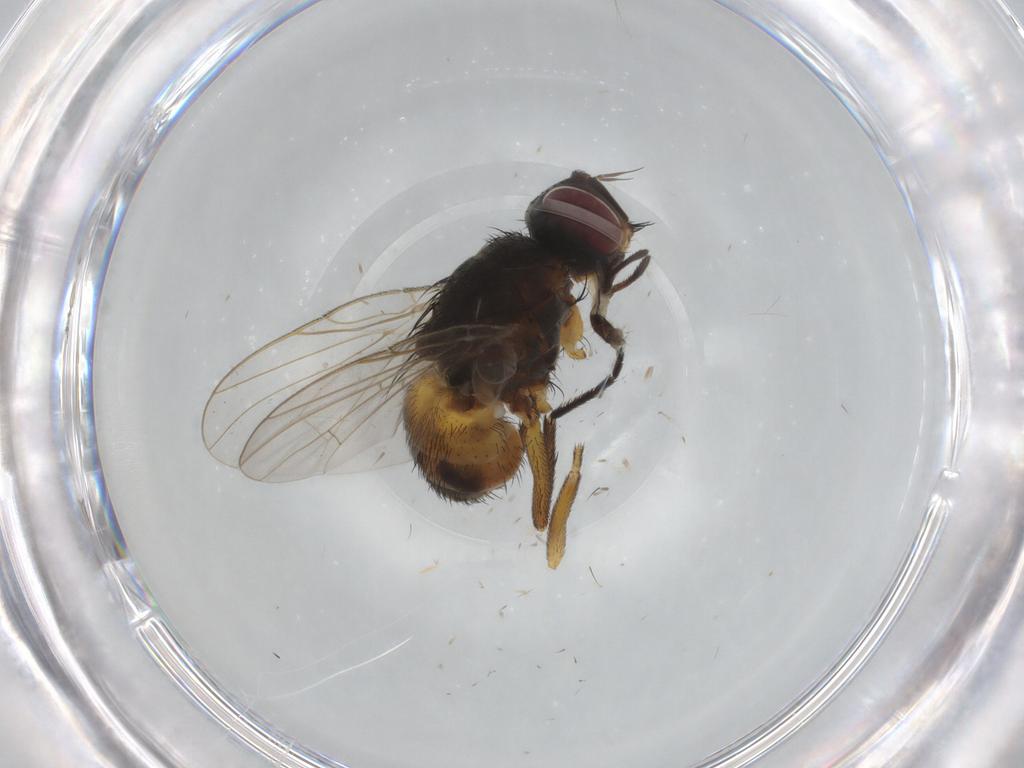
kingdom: Animalia
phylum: Arthropoda
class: Insecta
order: Diptera
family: Muscidae
